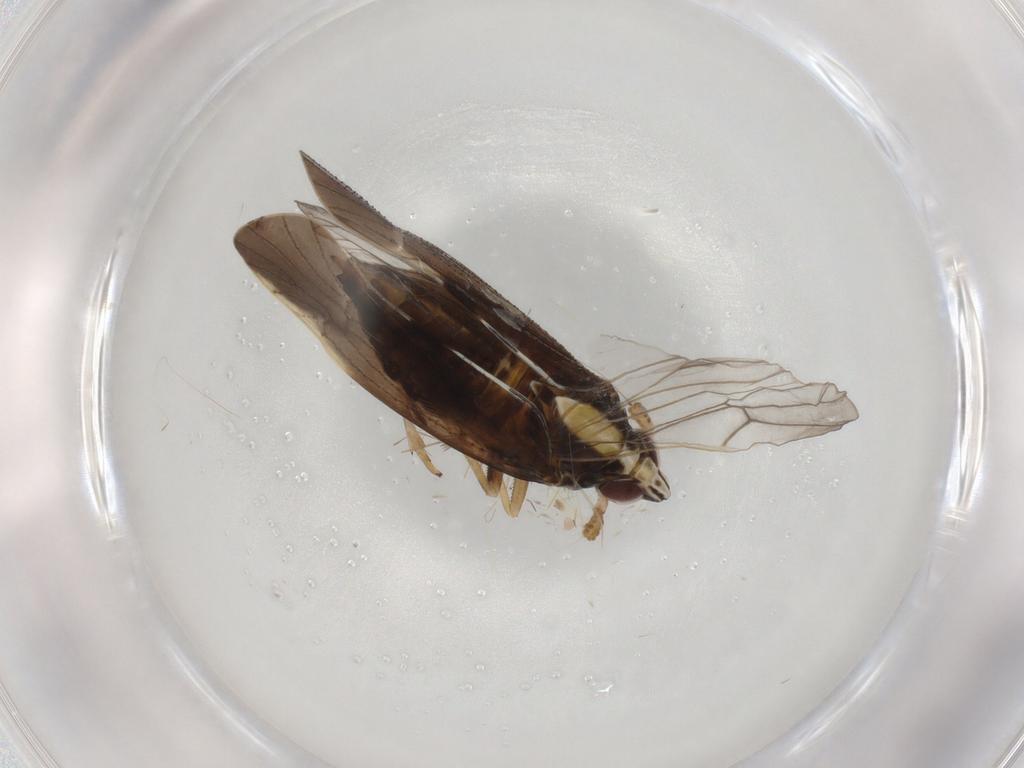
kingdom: Animalia
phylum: Arthropoda
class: Insecta
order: Hemiptera
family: Delphacidae
